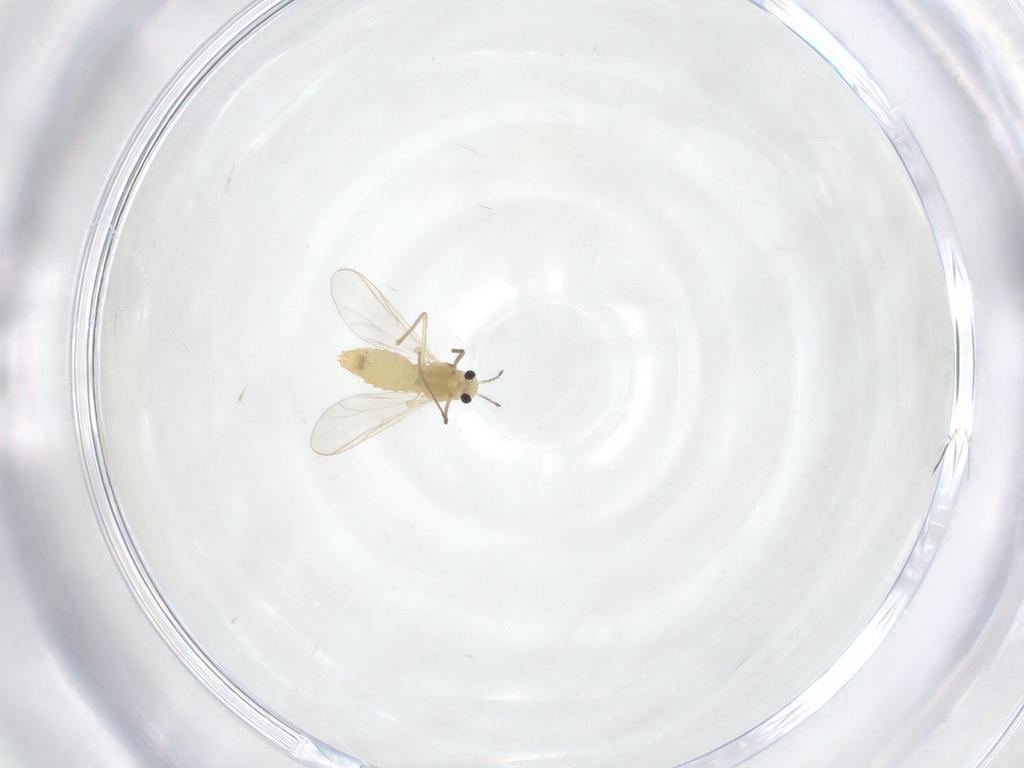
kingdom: Animalia
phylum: Arthropoda
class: Insecta
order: Diptera
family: Chironomidae
